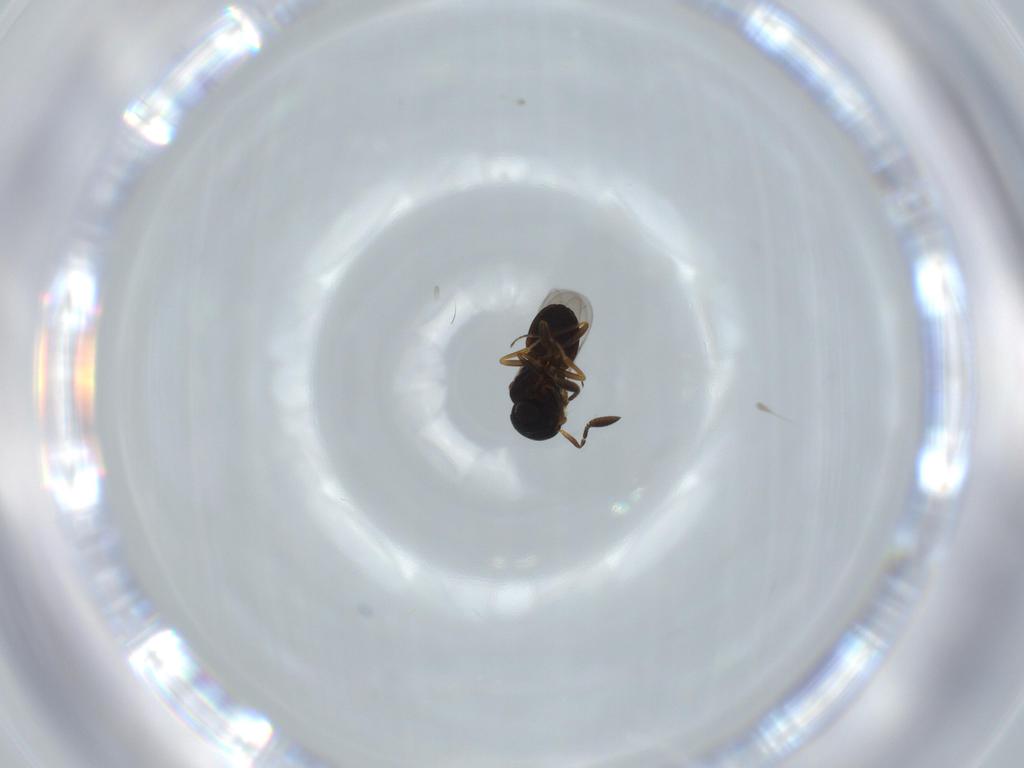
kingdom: Animalia
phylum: Arthropoda
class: Insecta
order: Coleoptera
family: Curculionidae
